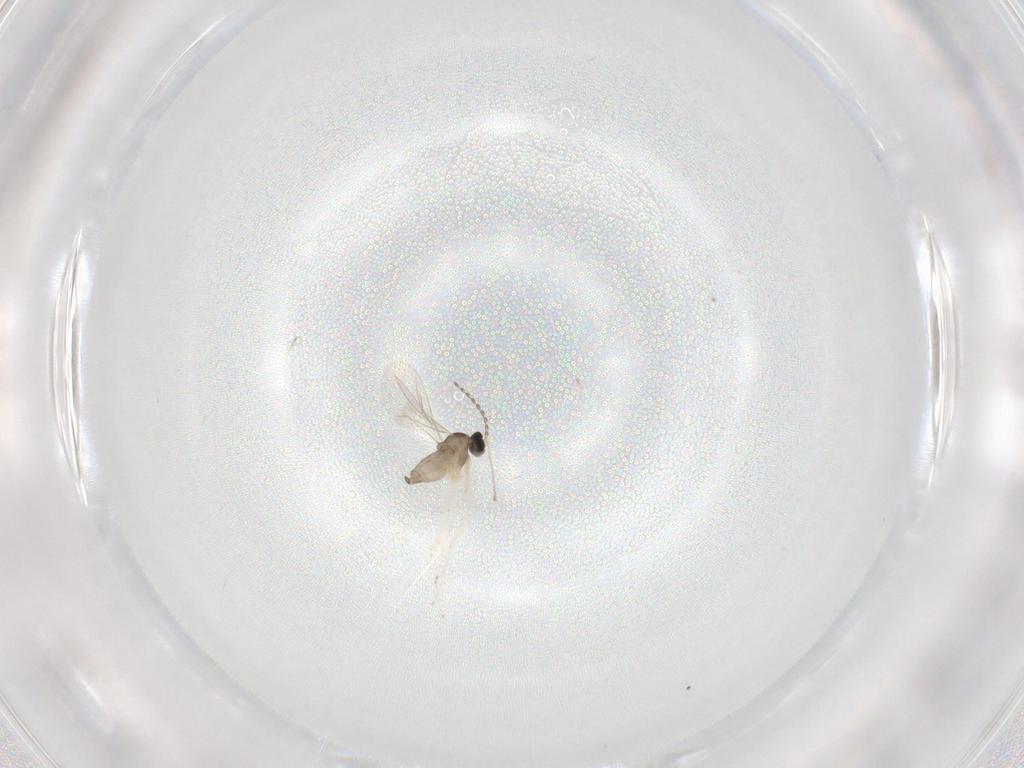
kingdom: Animalia
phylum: Arthropoda
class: Insecta
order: Diptera
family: Cecidomyiidae
